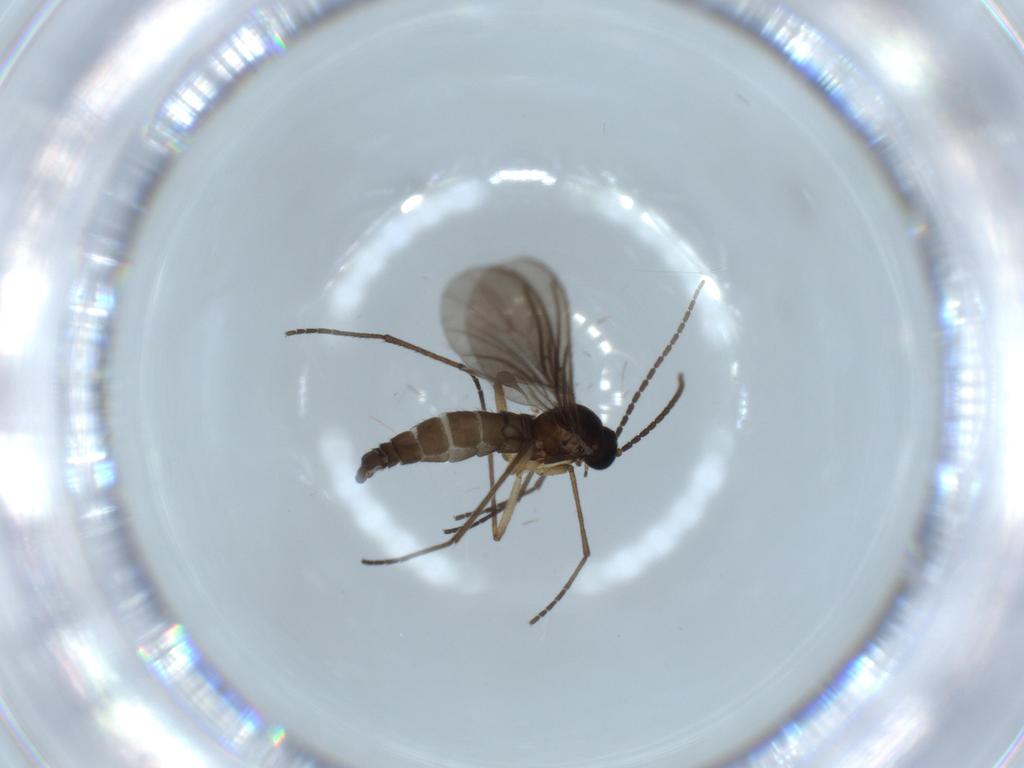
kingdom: Animalia
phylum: Arthropoda
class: Insecta
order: Diptera
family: Sciaridae
